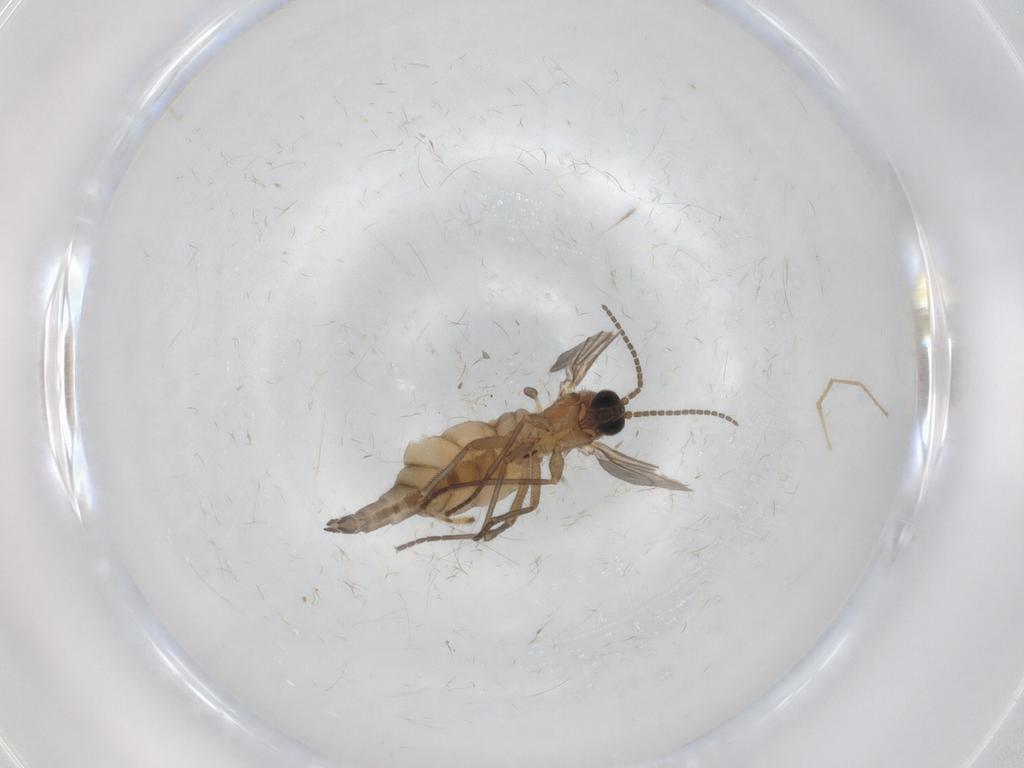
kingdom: Animalia
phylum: Arthropoda
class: Insecta
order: Diptera
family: Sciaridae
